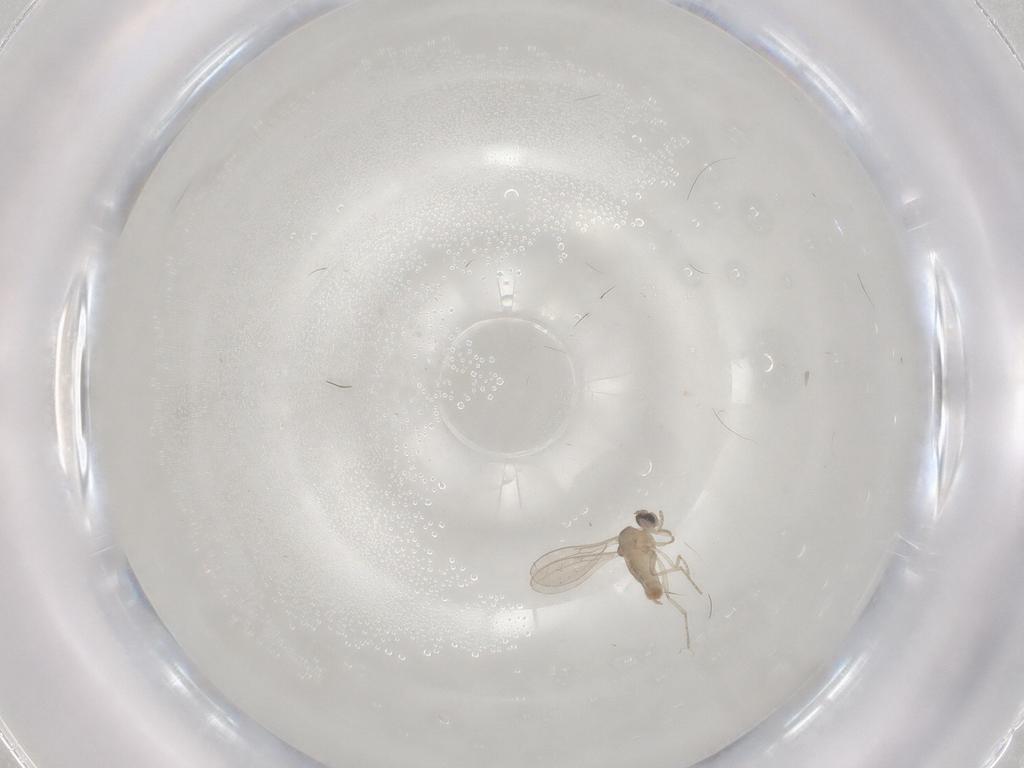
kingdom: Animalia
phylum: Arthropoda
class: Insecta
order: Diptera
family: Cecidomyiidae
